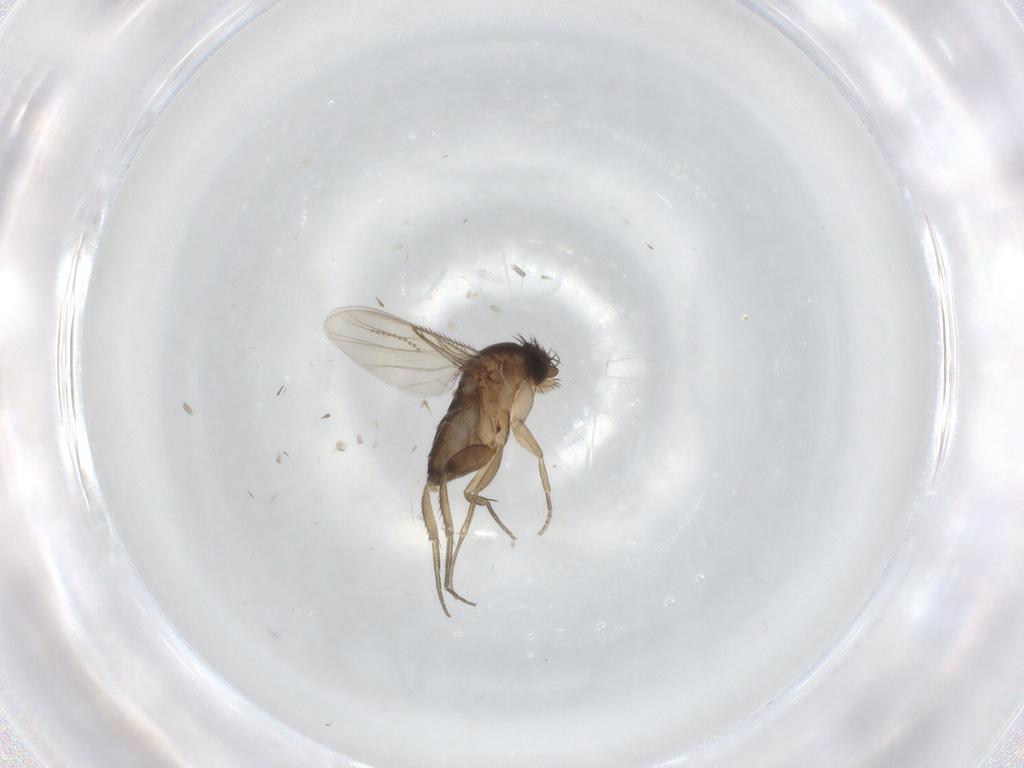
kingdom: Animalia
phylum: Arthropoda
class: Insecta
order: Diptera
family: Phoridae
